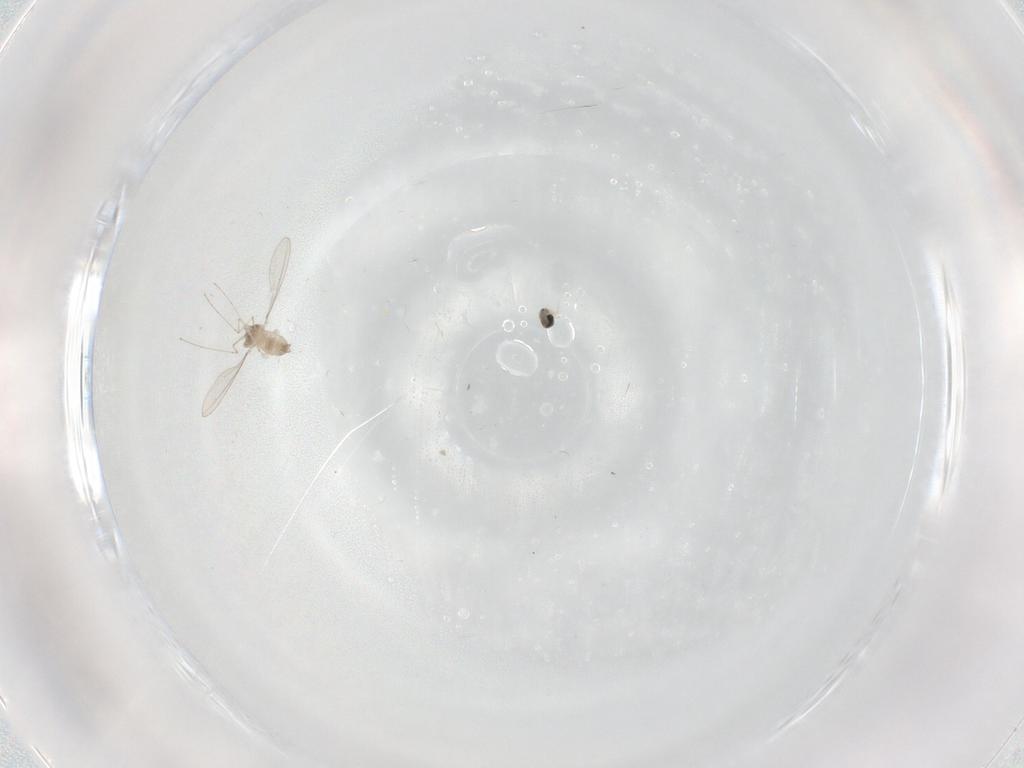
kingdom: Animalia
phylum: Arthropoda
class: Insecta
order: Diptera
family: Cecidomyiidae
